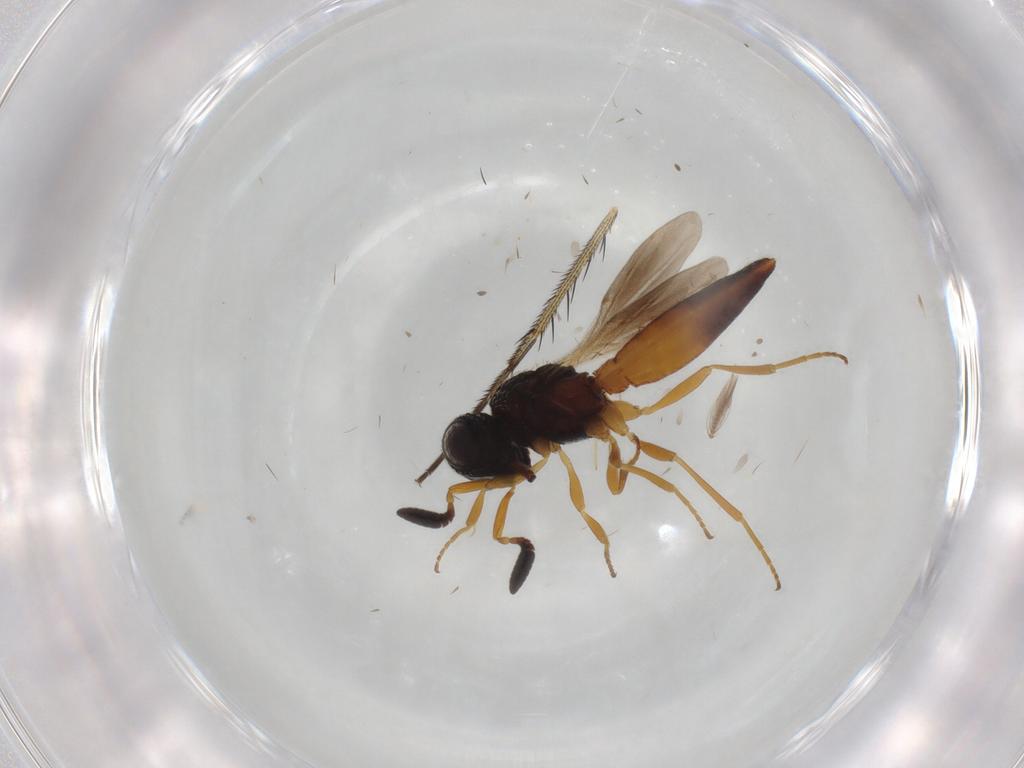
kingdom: Animalia
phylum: Arthropoda
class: Insecta
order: Hymenoptera
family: Scelionidae
